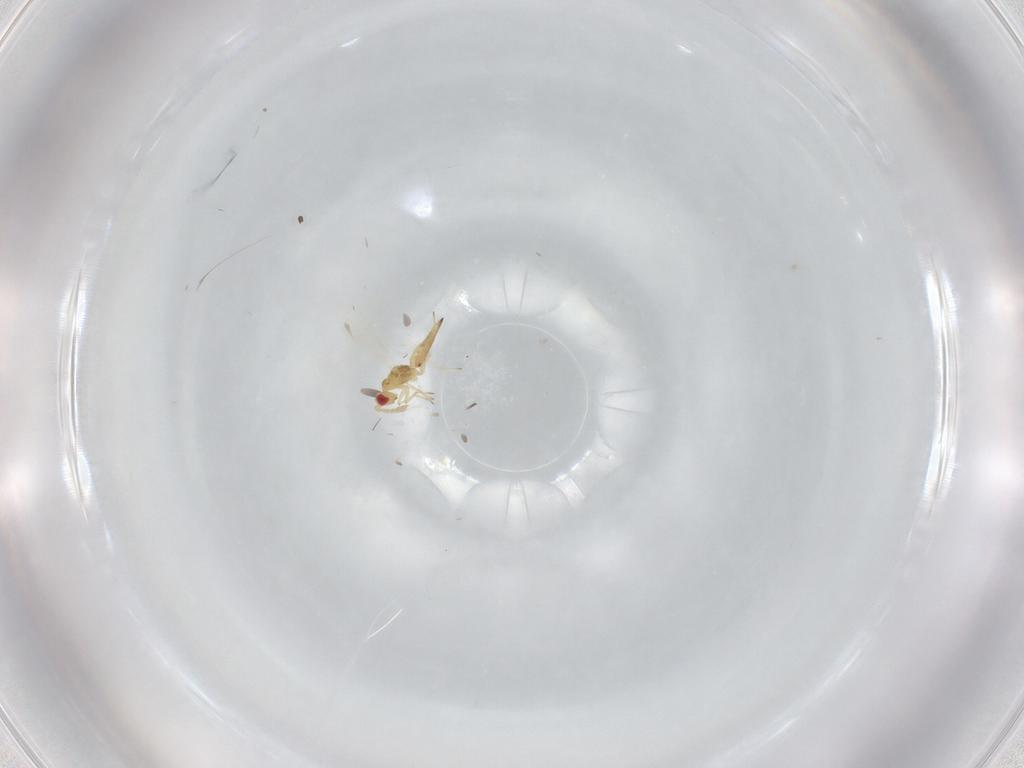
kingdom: Animalia
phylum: Arthropoda
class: Insecta
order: Hymenoptera
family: Eulophidae
